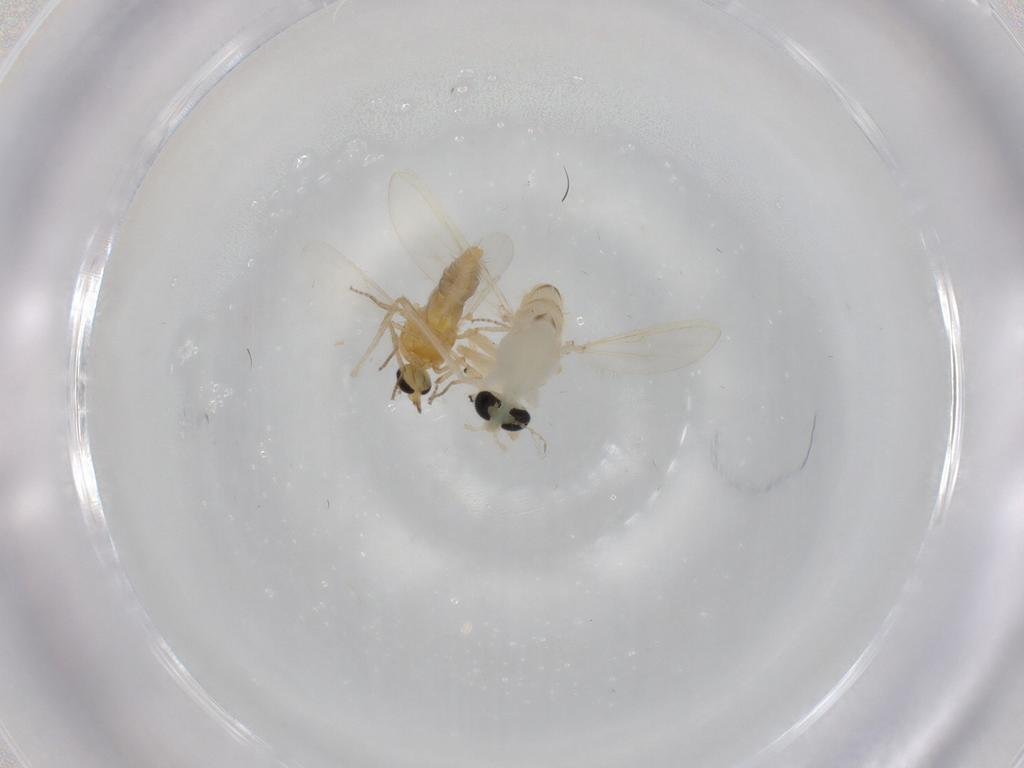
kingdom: Animalia
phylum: Arthropoda
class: Insecta
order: Diptera
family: Chironomidae
